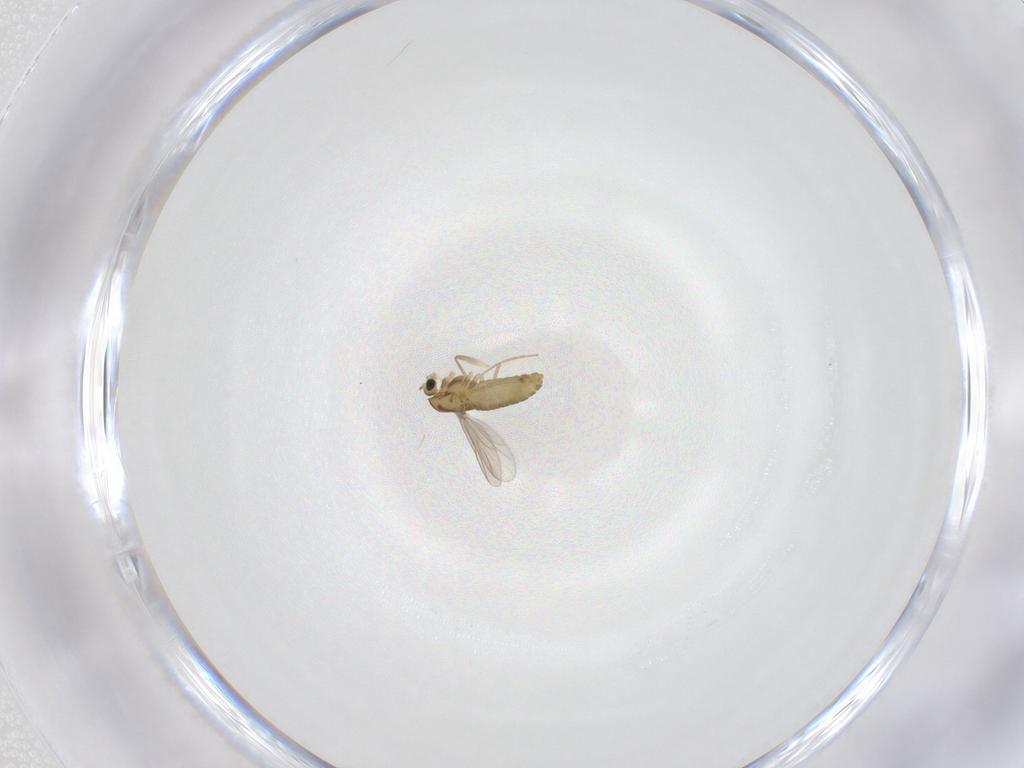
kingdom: Animalia
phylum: Arthropoda
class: Insecta
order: Diptera
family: Chironomidae
